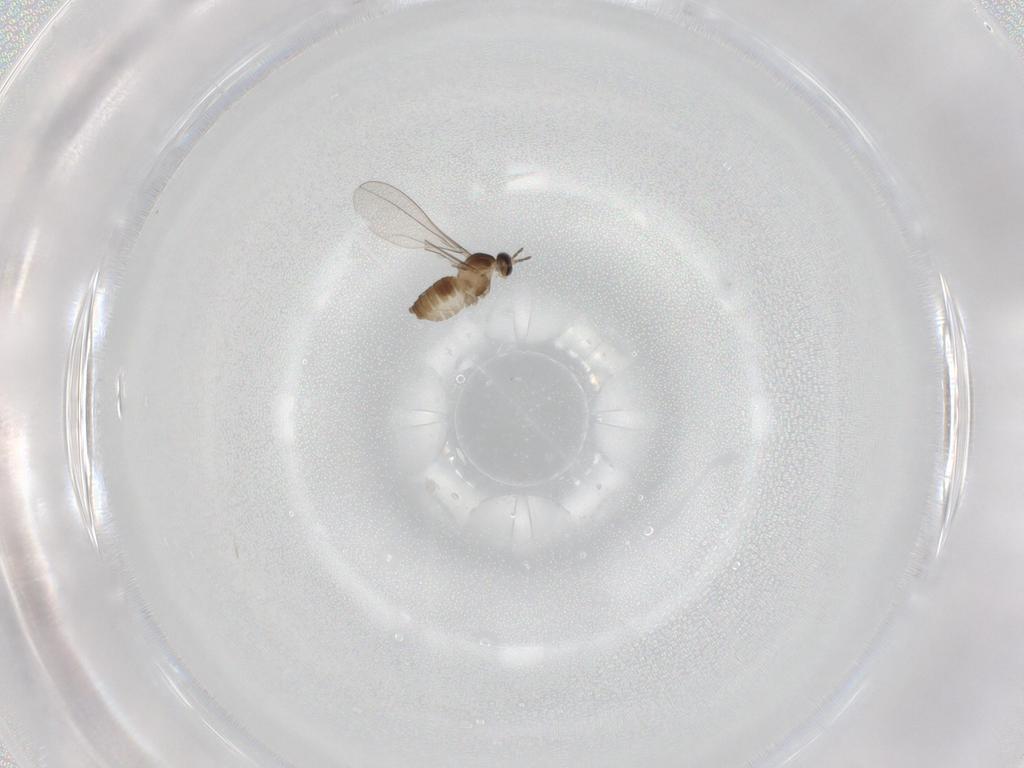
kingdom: Animalia
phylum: Arthropoda
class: Insecta
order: Diptera
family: Cecidomyiidae
